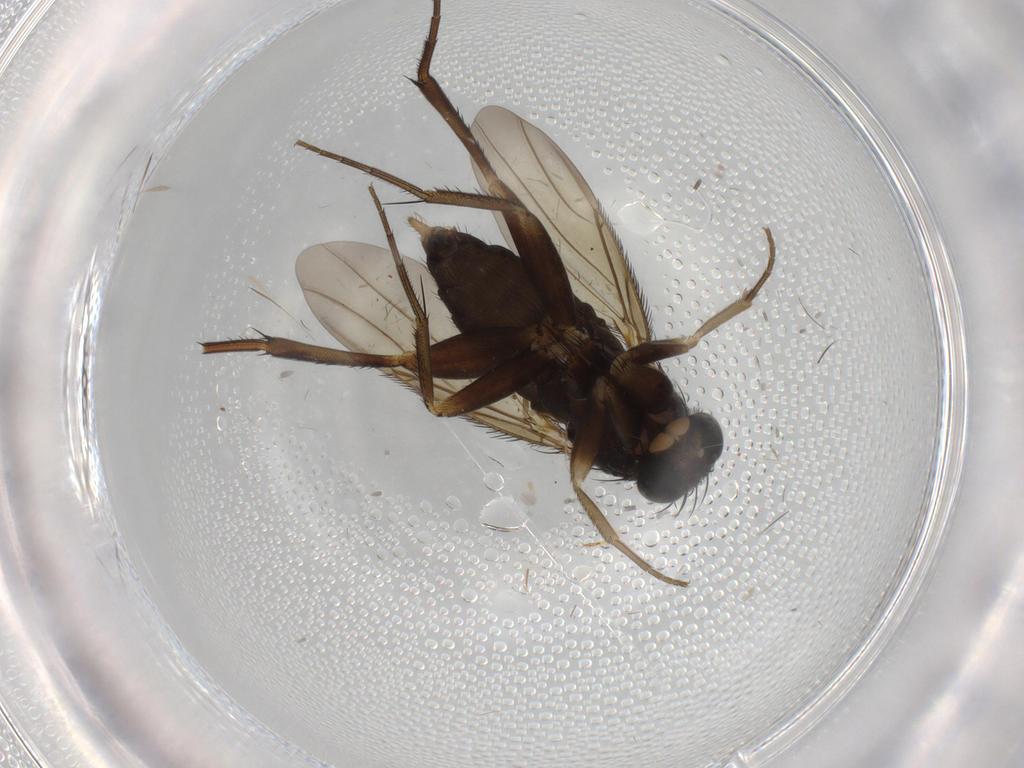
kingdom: Animalia
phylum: Arthropoda
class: Insecta
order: Diptera
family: Phoridae
